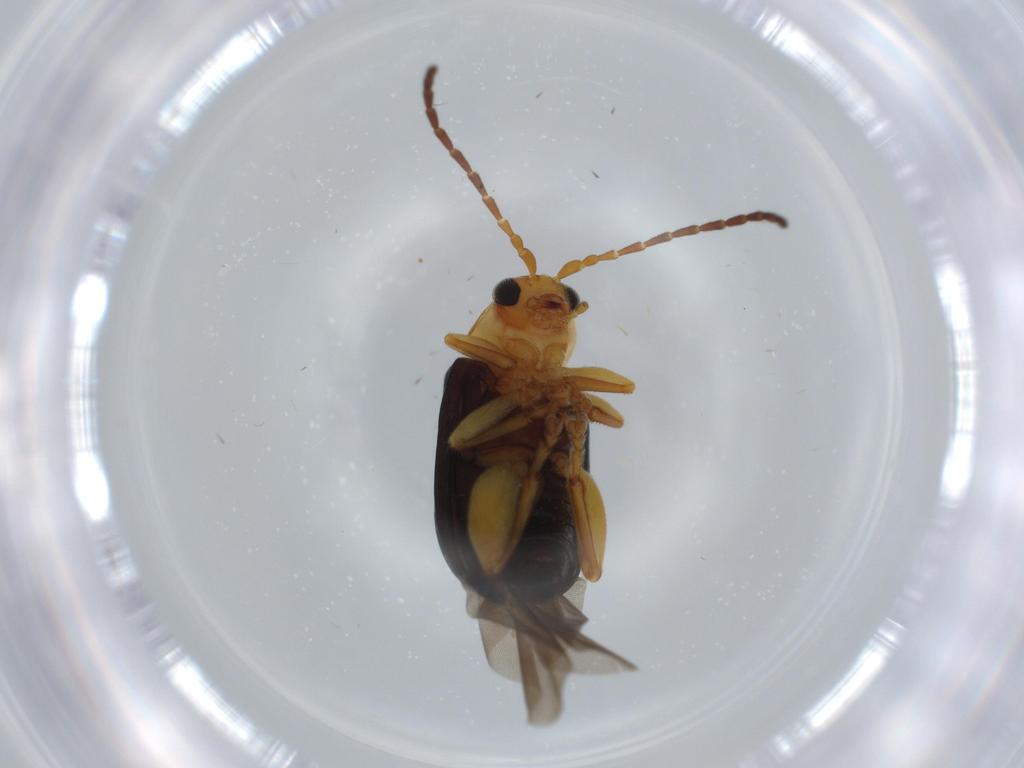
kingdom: Animalia
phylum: Arthropoda
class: Insecta
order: Coleoptera
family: Chrysomelidae
